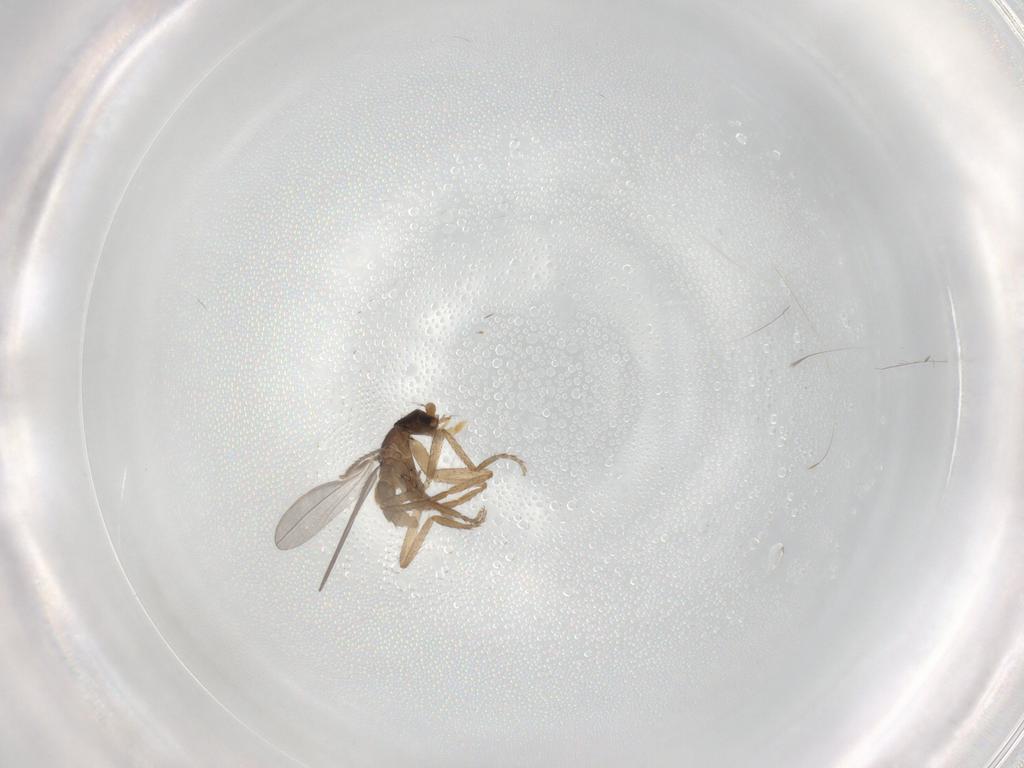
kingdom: Animalia
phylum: Arthropoda
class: Insecta
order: Diptera
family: Phoridae
